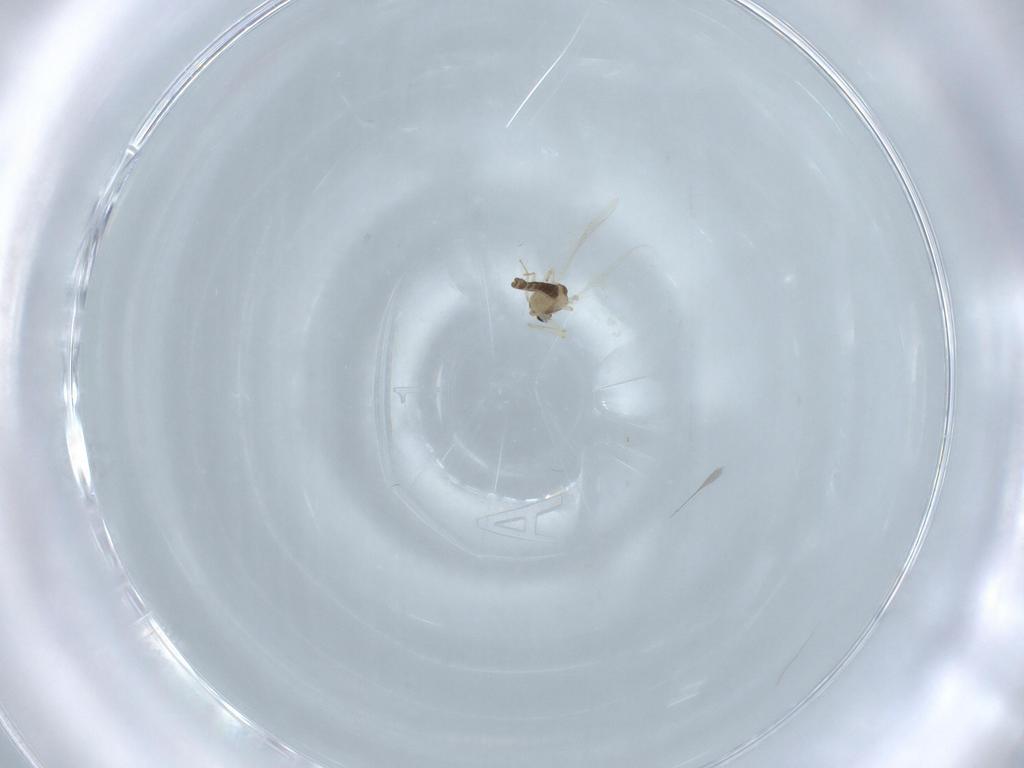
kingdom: Animalia
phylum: Arthropoda
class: Insecta
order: Diptera
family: Chironomidae
